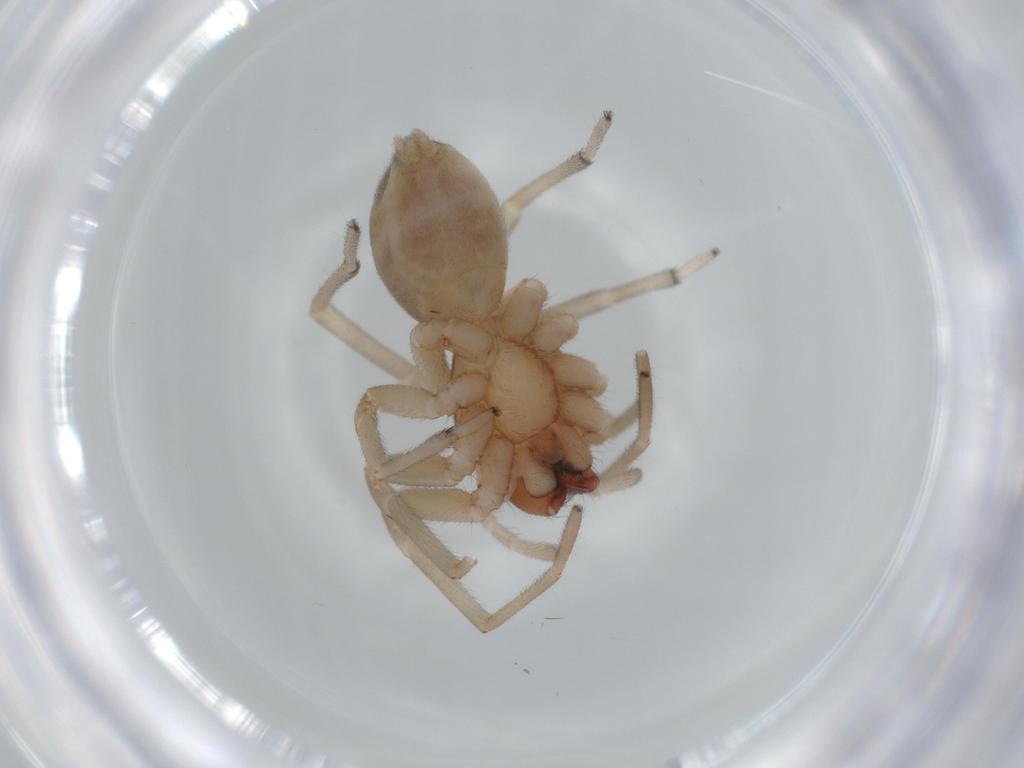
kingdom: Animalia
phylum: Arthropoda
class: Arachnida
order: Araneae
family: Trachelidae
